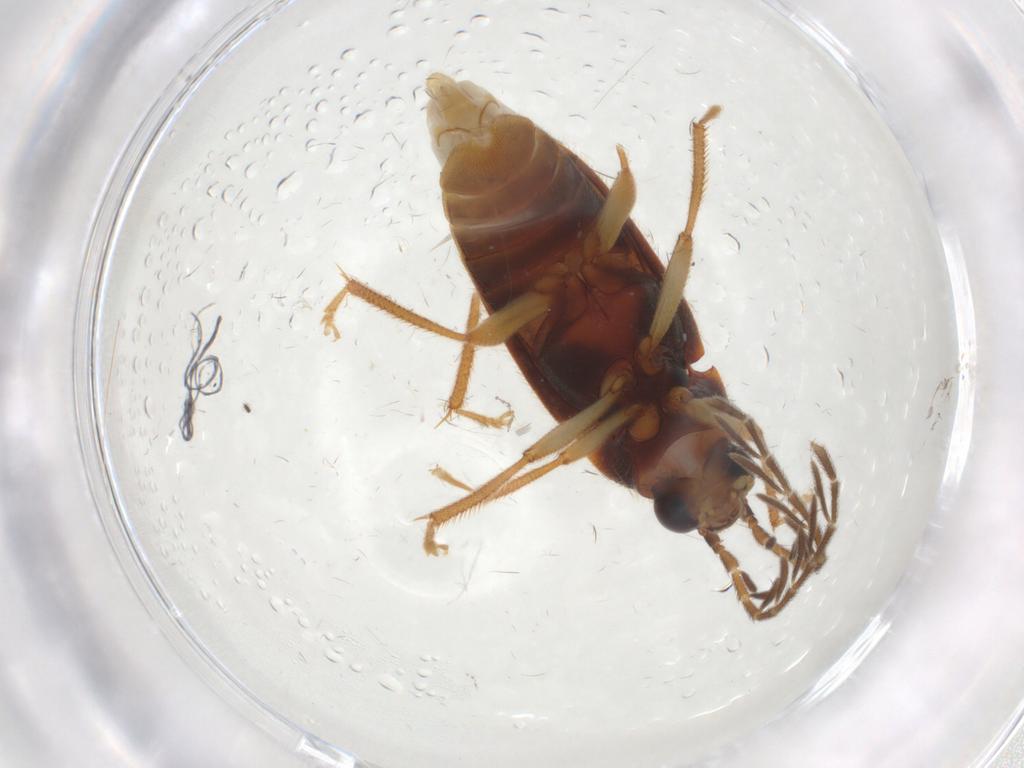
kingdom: Animalia
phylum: Arthropoda
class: Insecta
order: Coleoptera
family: Ptilodactylidae
